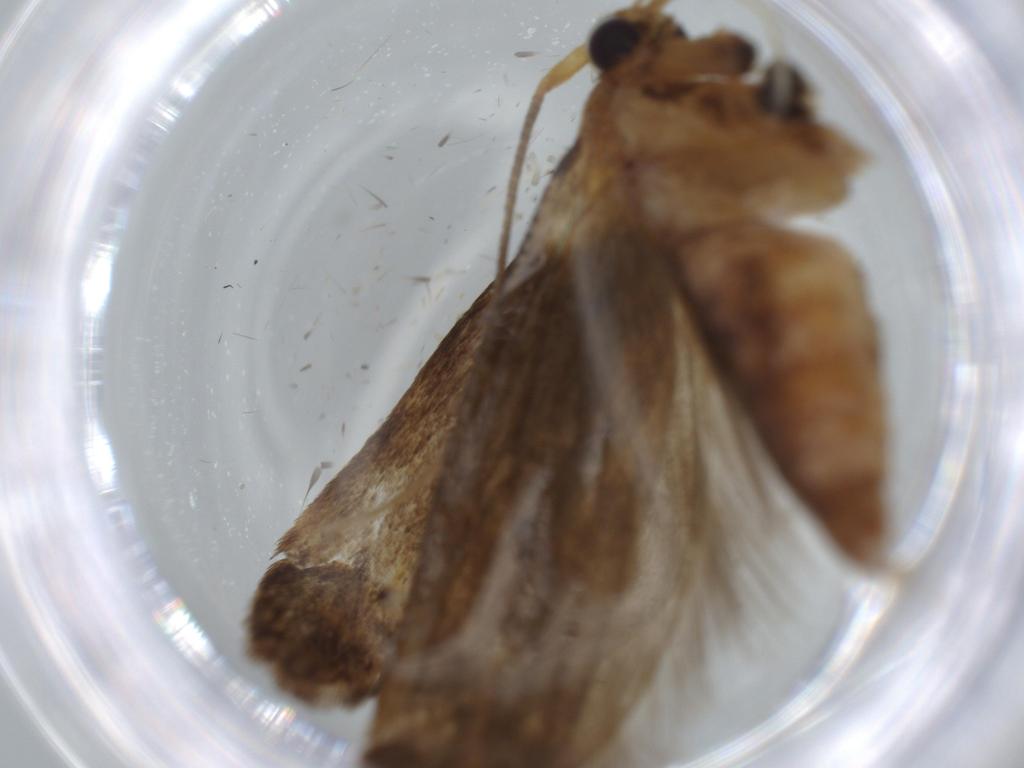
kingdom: Animalia
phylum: Arthropoda
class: Insecta
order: Lepidoptera
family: Gracillariidae
